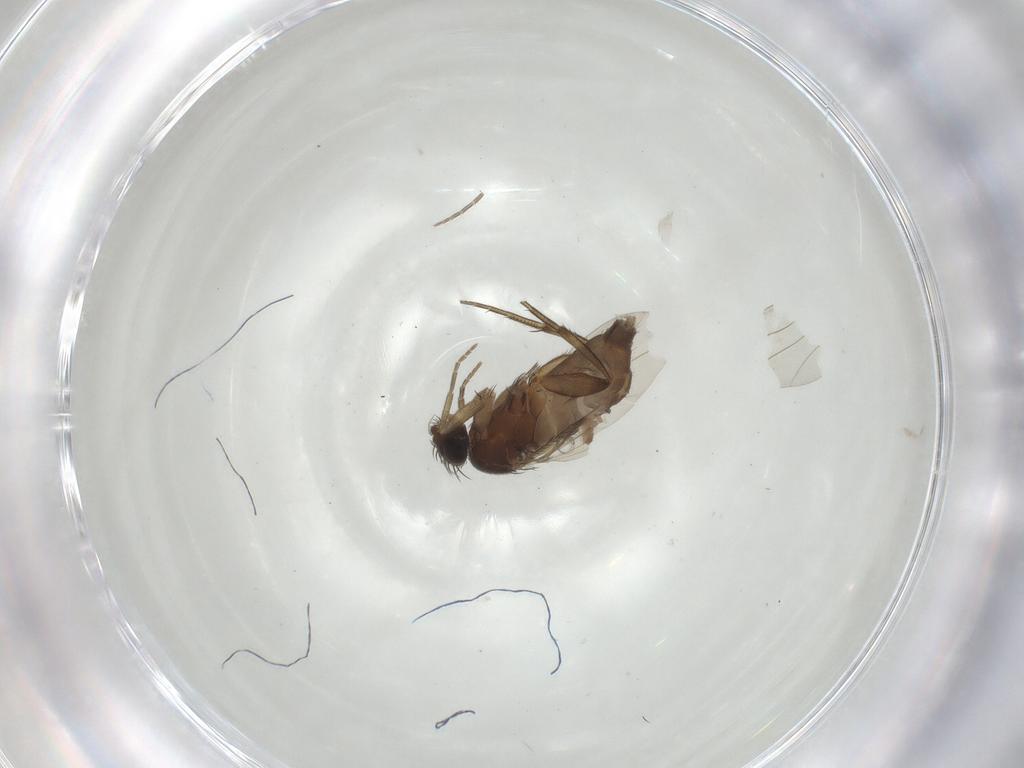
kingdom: Animalia
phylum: Arthropoda
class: Insecta
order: Diptera
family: Phoridae
